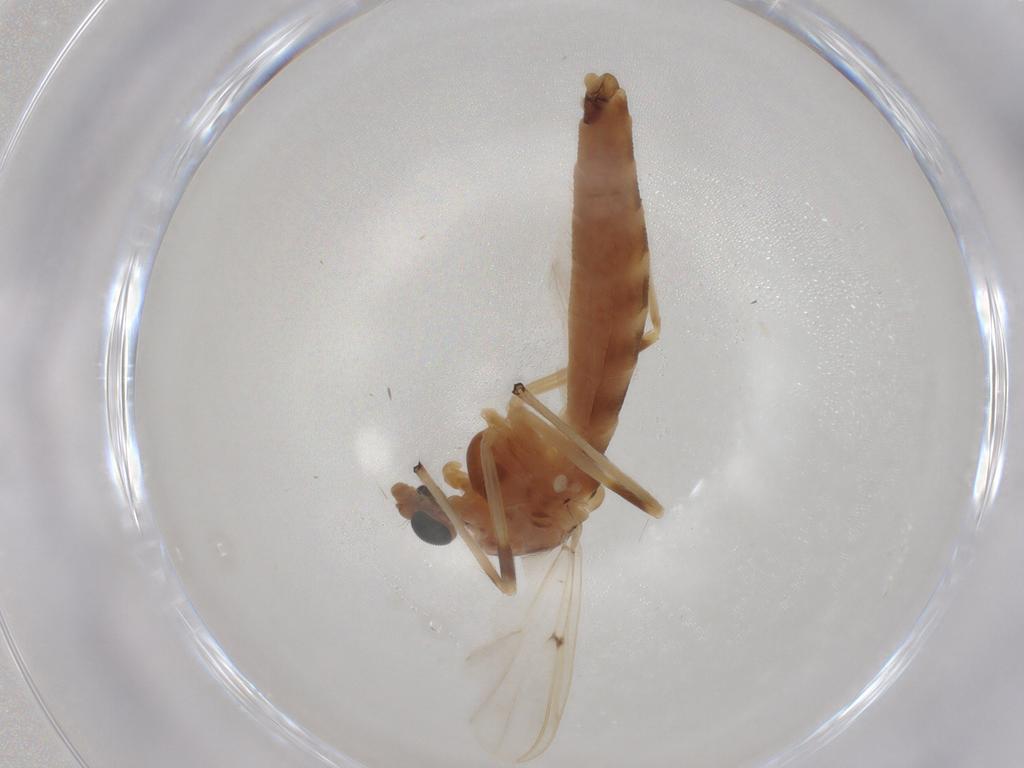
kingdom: Animalia
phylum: Arthropoda
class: Insecta
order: Diptera
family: Chironomidae
